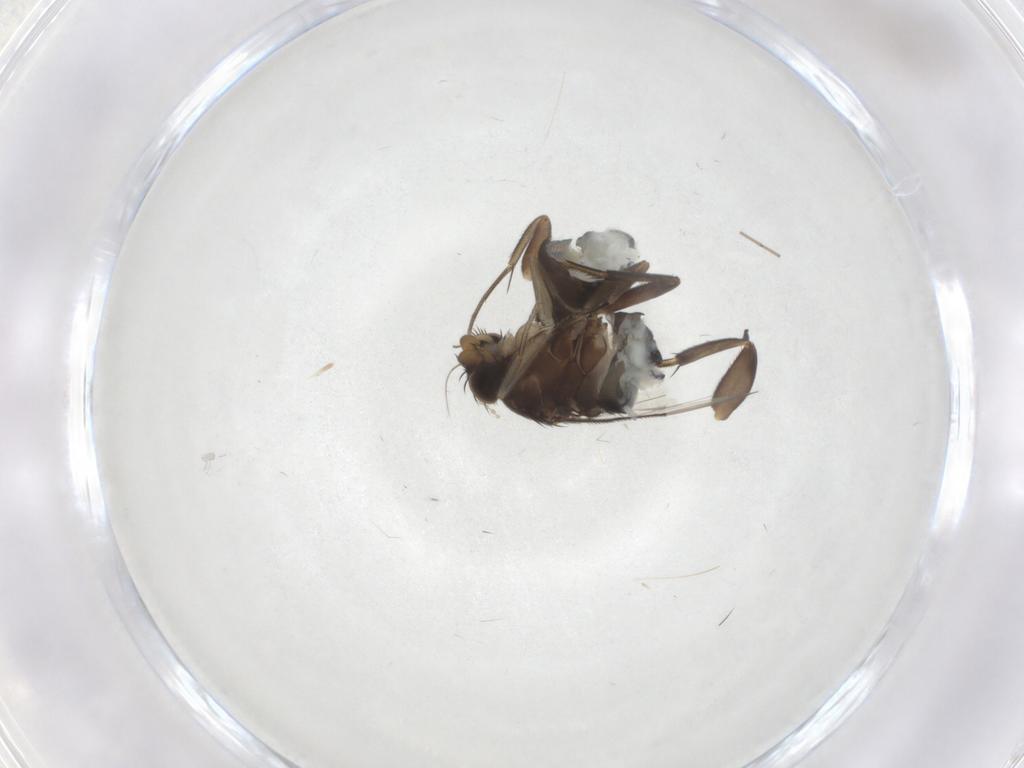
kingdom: Animalia
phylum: Arthropoda
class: Insecta
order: Diptera
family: Phoridae
